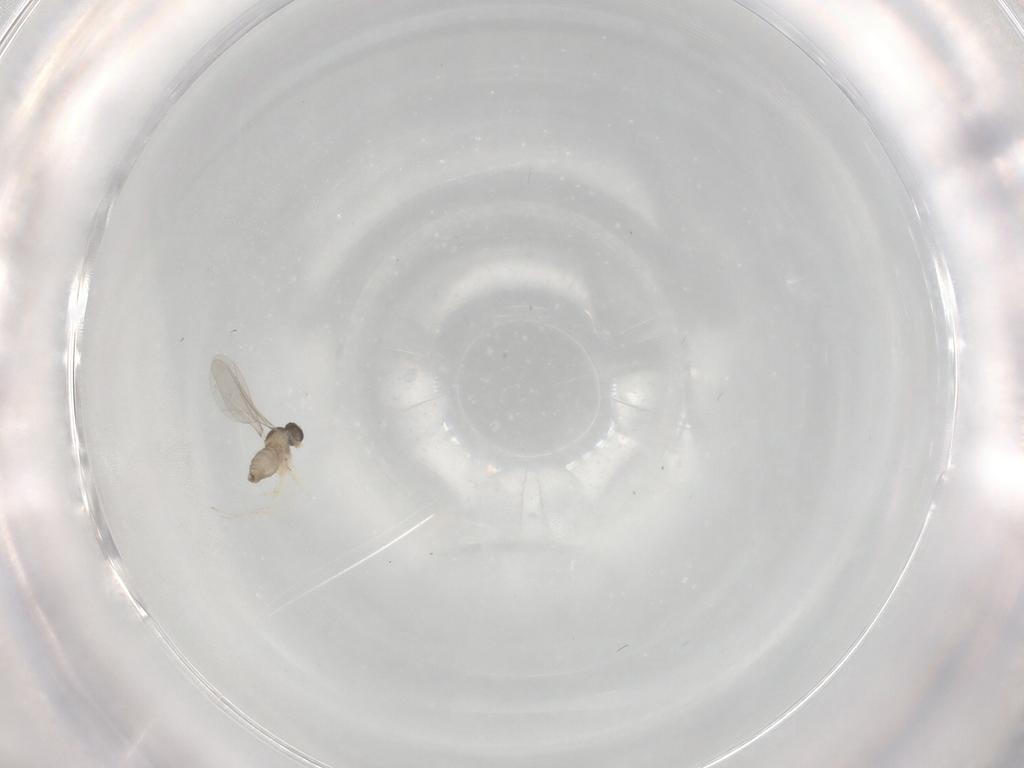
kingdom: Animalia
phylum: Arthropoda
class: Insecta
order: Diptera
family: Cecidomyiidae
